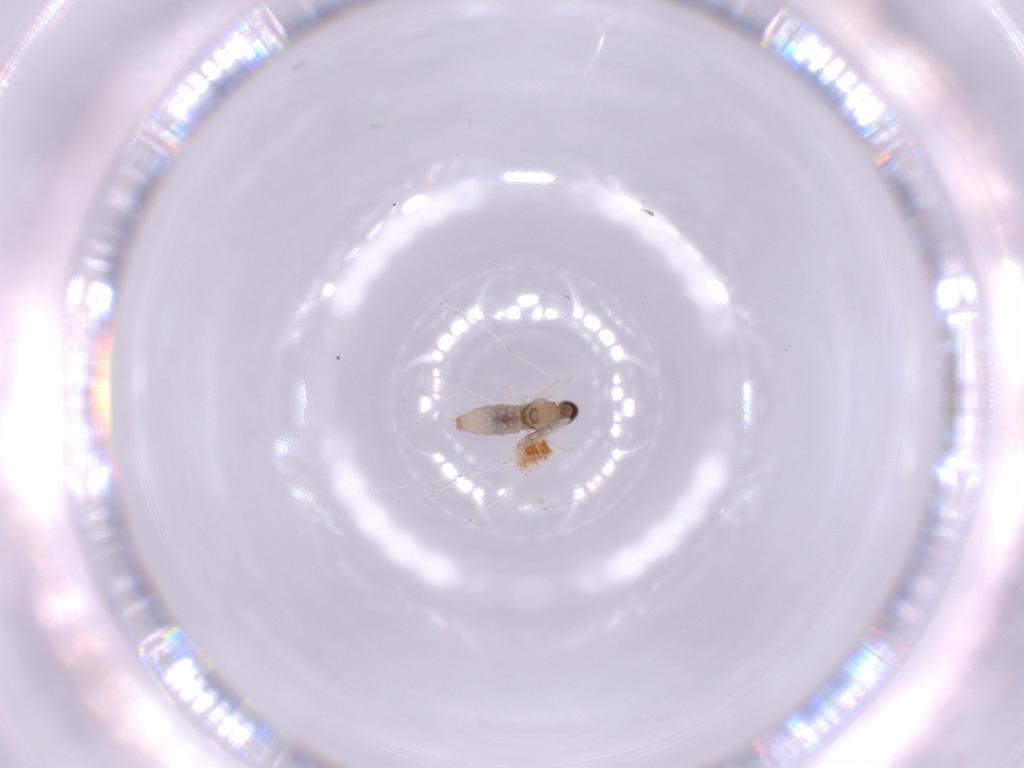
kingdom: Animalia
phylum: Arthropoda
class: Insecta
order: Diptera
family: Cecidomyiidae
